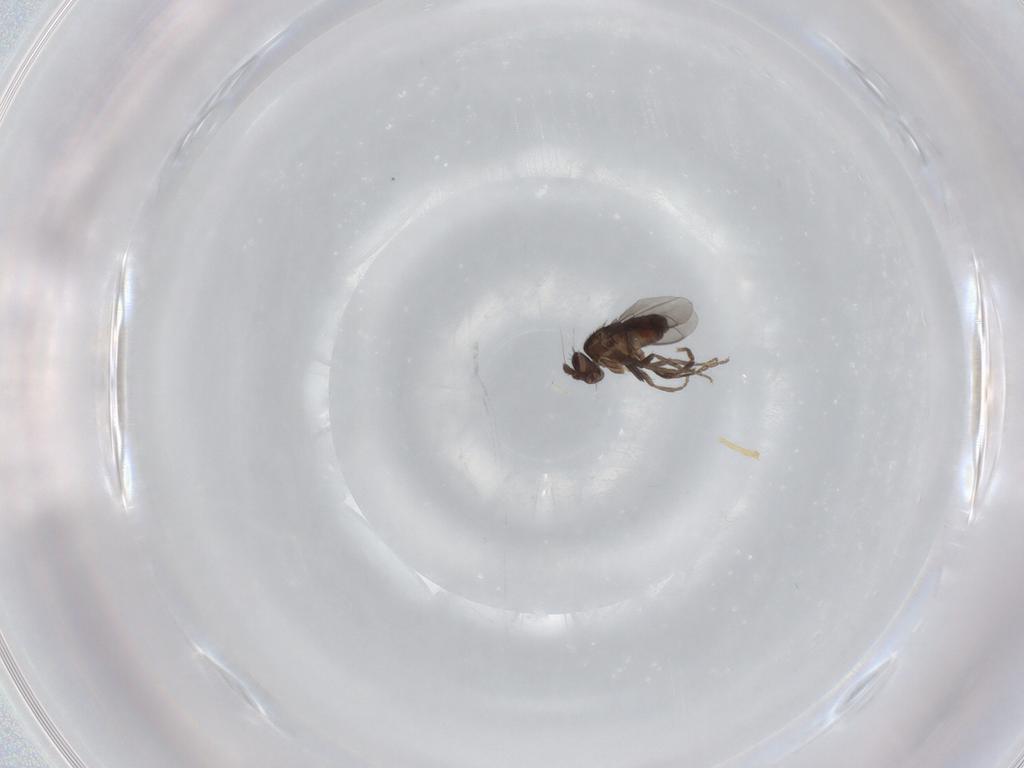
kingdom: Animalia
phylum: Arthropoda
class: Insecta
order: Diptera
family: Sphaeroceridae
